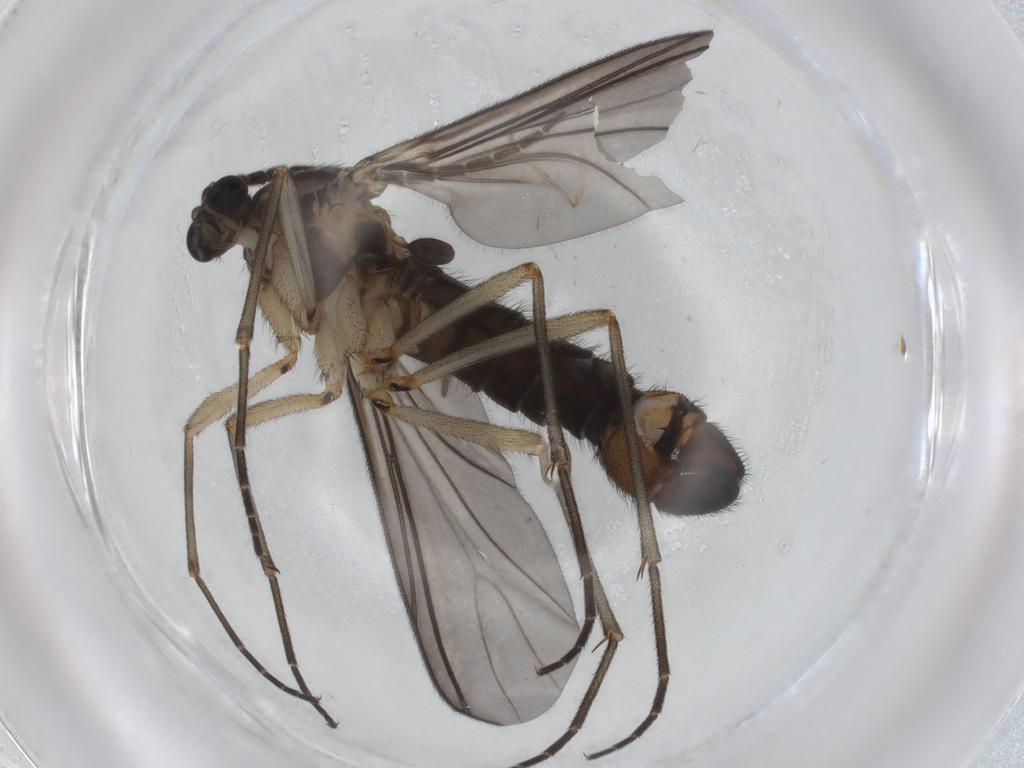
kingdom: Animalia
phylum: Arthropoda
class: Insecta
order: Diptera
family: Sciaridae
